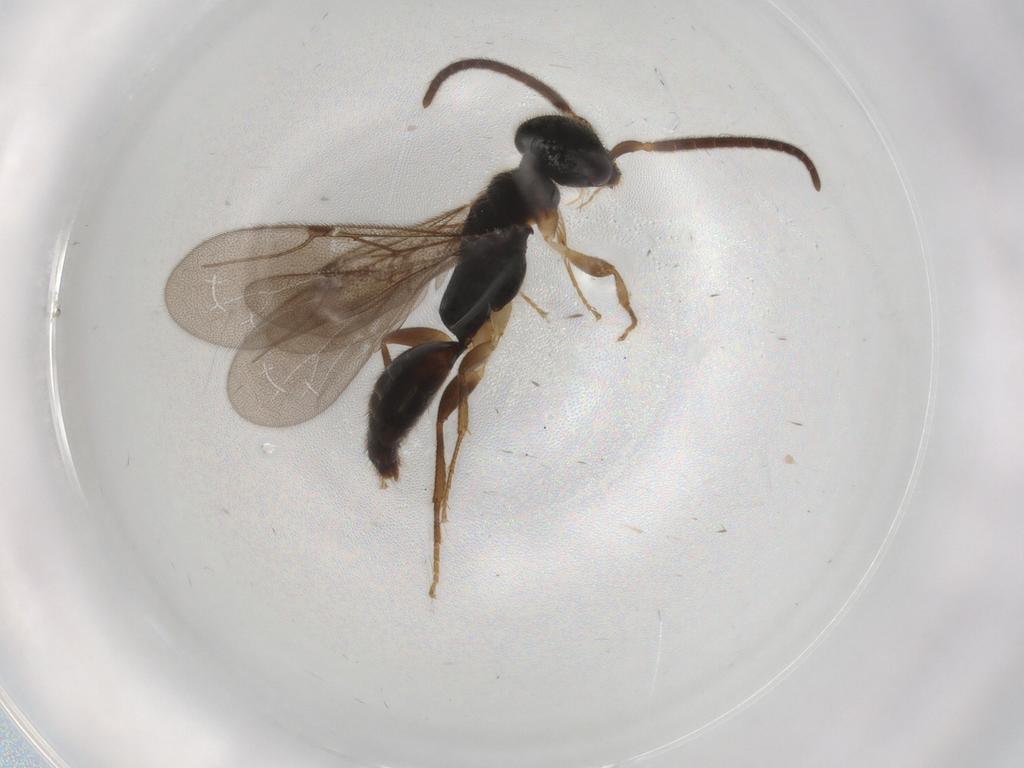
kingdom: Animalia
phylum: Arthropoda
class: Insecta
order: Hymenoptera
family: Bethylidae
